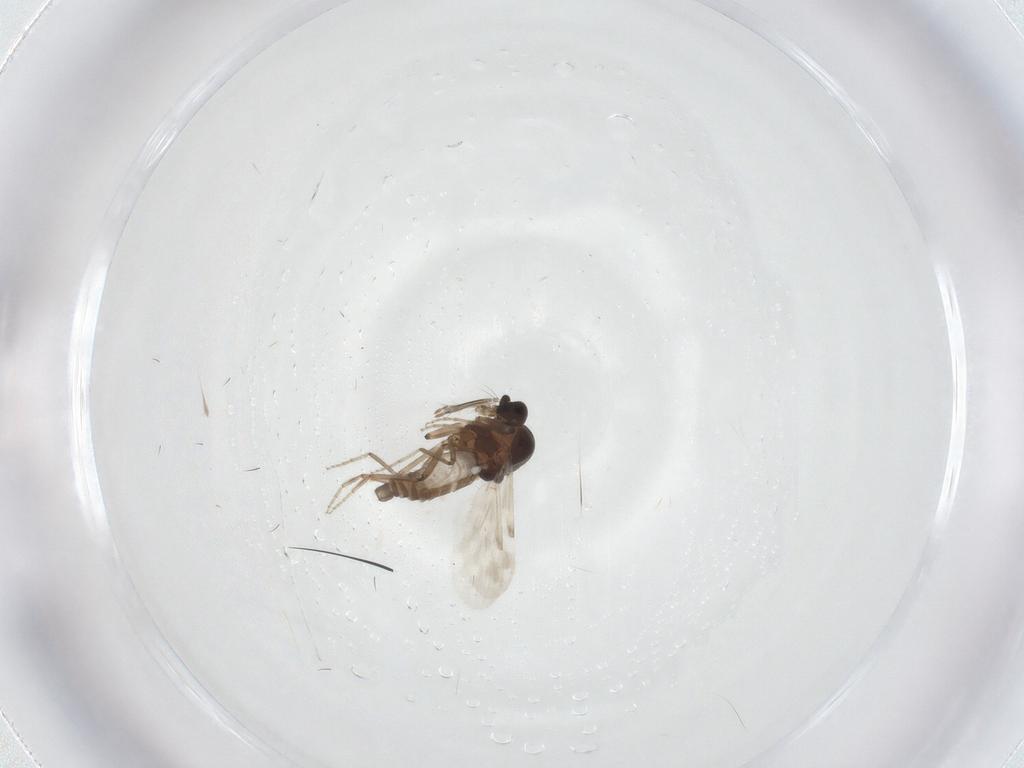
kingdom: Animalia
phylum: Arthropoda
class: Insecta
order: Diptera
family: Ceratopogonidae
